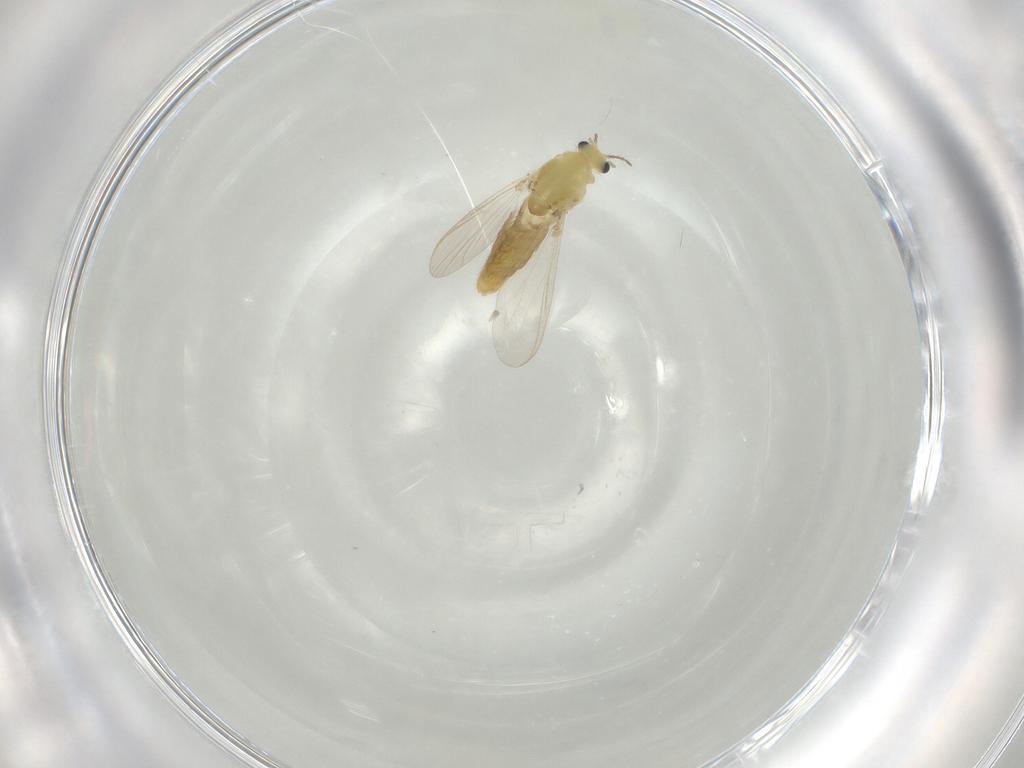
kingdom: Animalia
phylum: Arthropoda
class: Insecta
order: Diptera
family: Chironomidae
